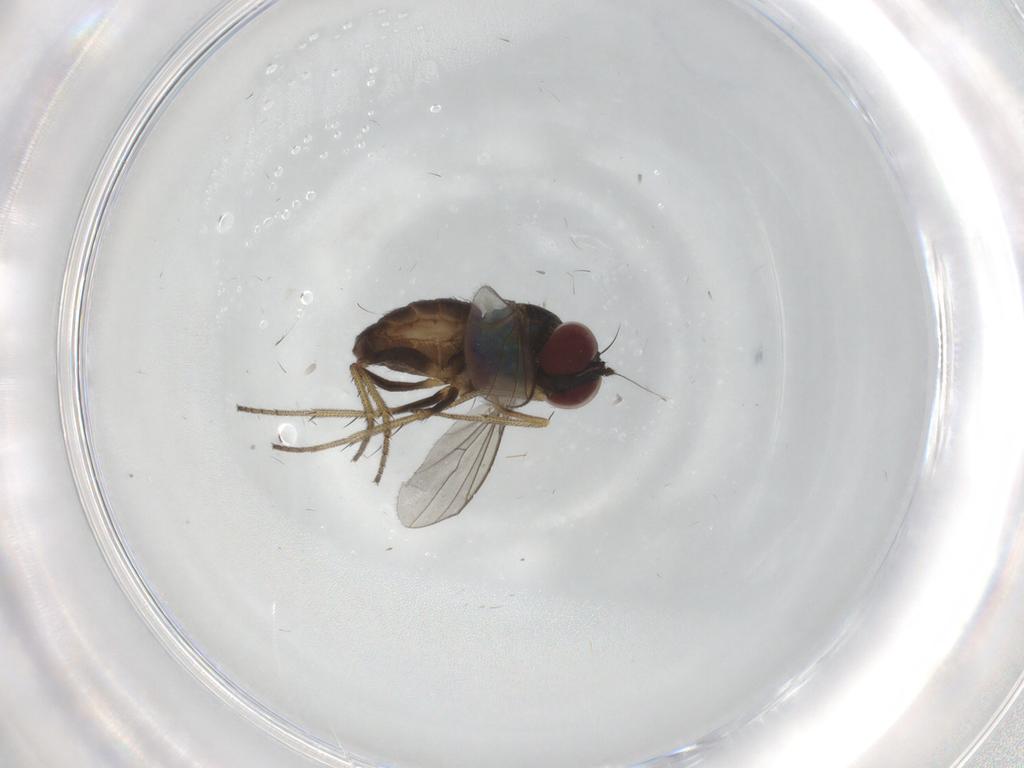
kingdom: Animalia
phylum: Arthropoda
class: Insecta
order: Diptera
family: Dolichopodidae
